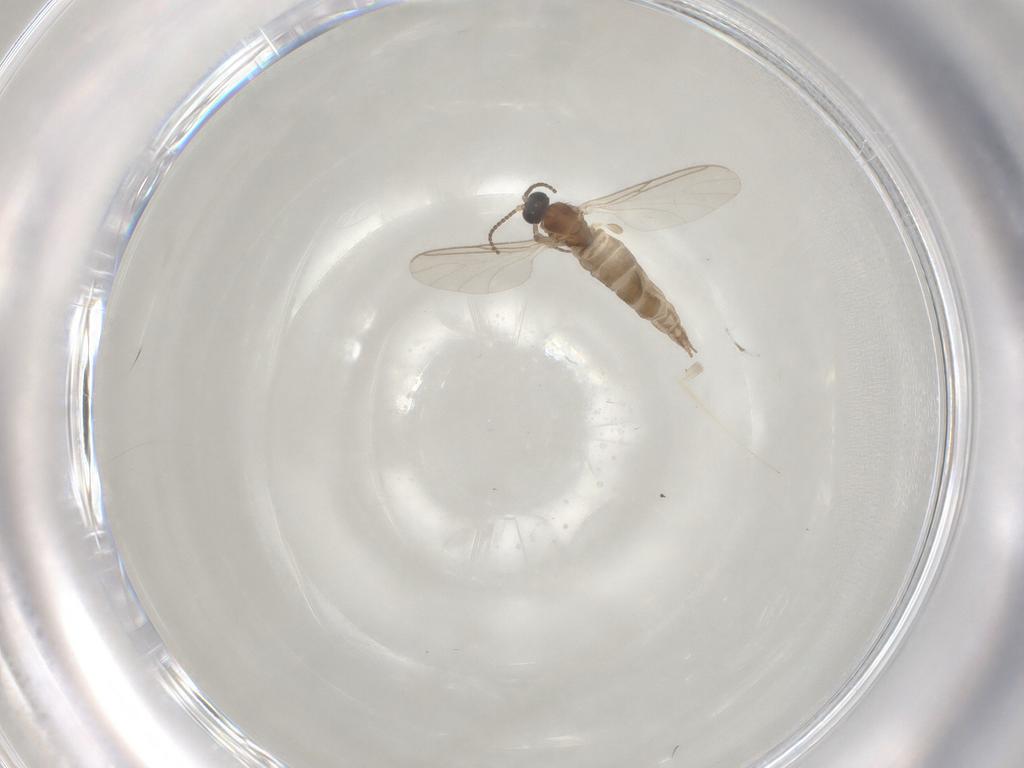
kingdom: Animalia
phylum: Arthropoda
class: Insecta
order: Diptera
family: Sciaridae
